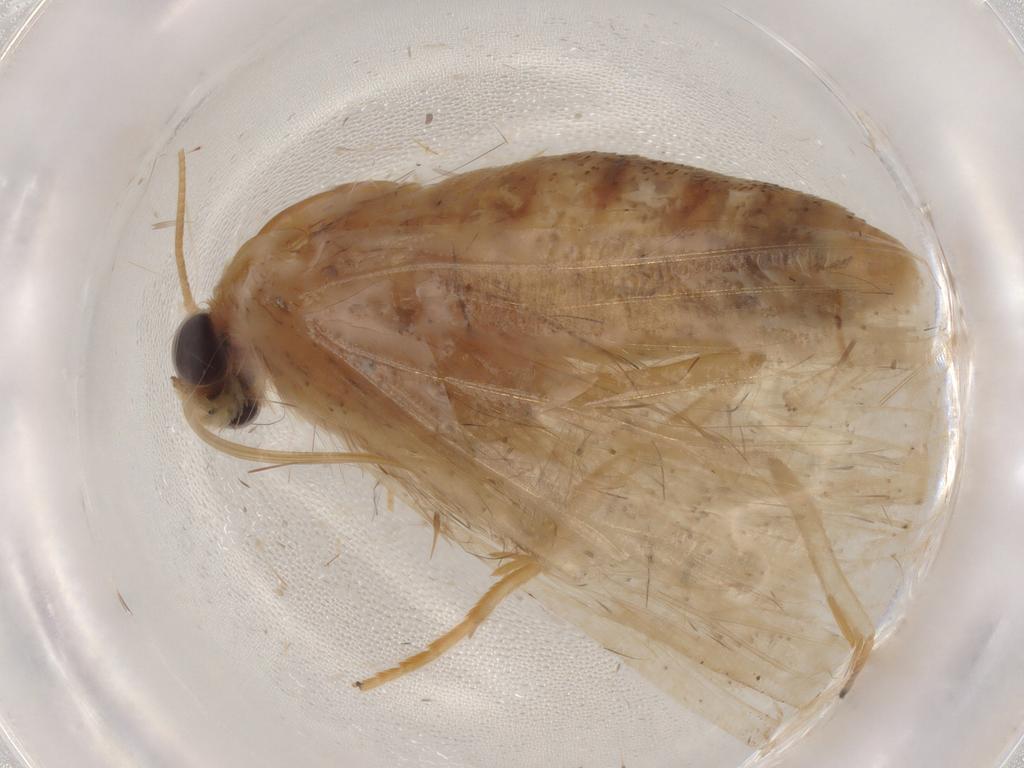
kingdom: Animalia
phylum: Arthropoda
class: Insecta
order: Lepidoptera
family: Geometridae
